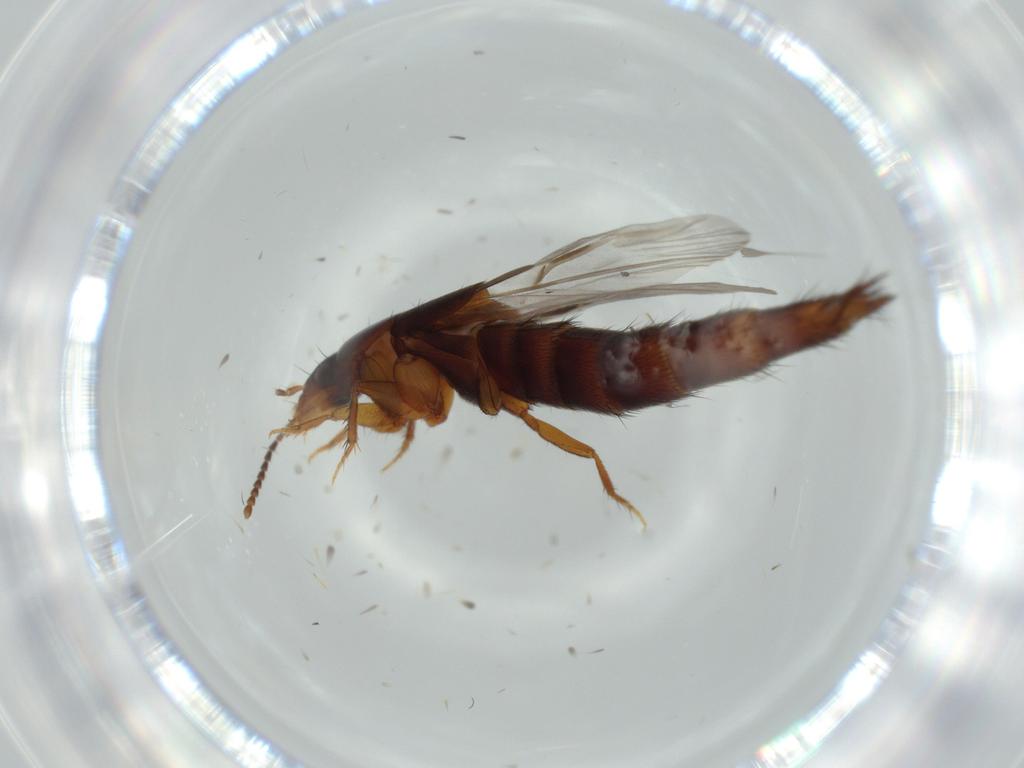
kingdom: Animalia
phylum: Arthropoda
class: Insecta
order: Coleoptera
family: Staphylinidae
